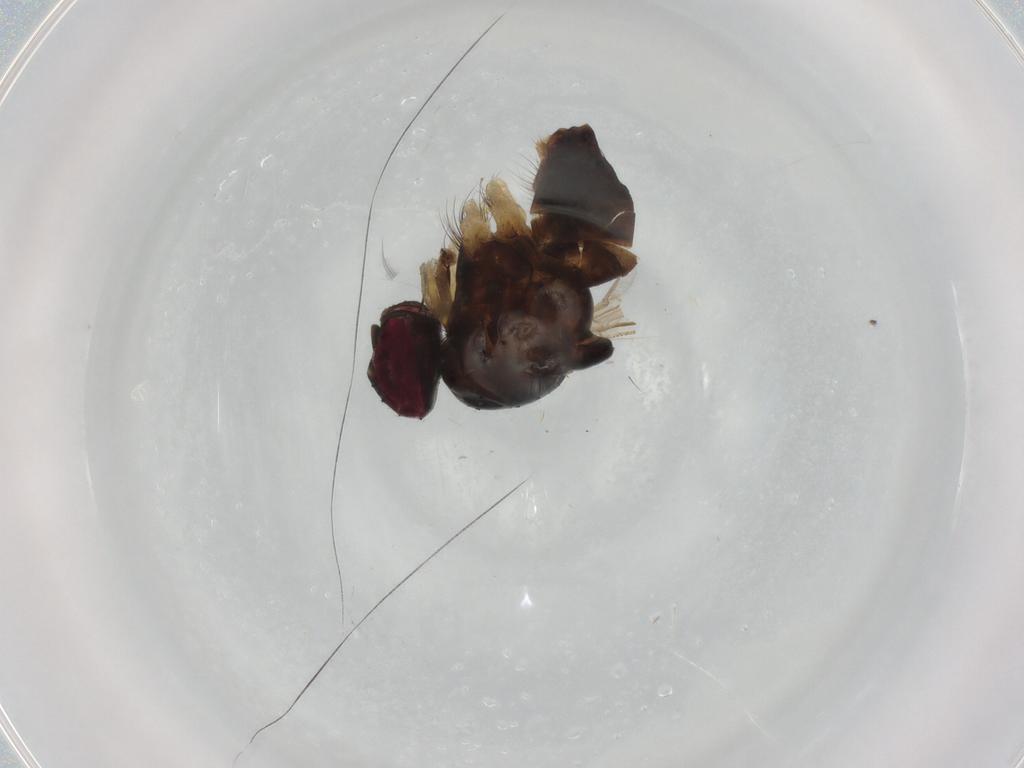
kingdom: Animalia
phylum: Arthropoda
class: Insecta
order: Diptera
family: Muscidae
